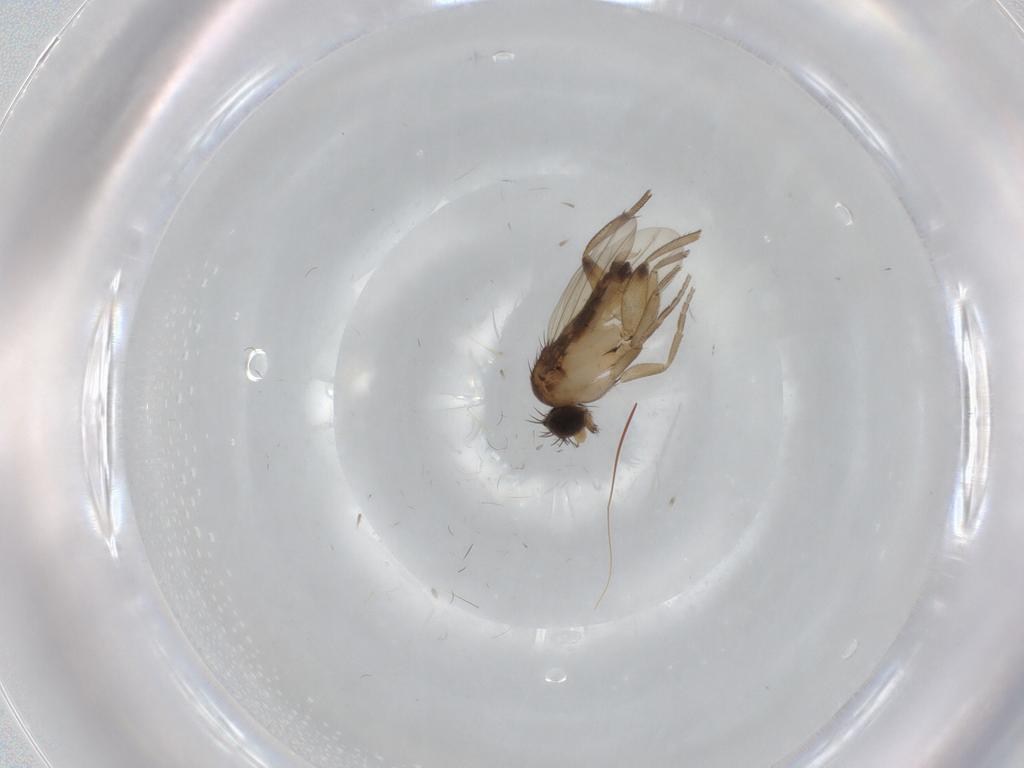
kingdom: Animalia
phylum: Arthropoda
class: Insecta
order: Diptera
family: Phoridae
